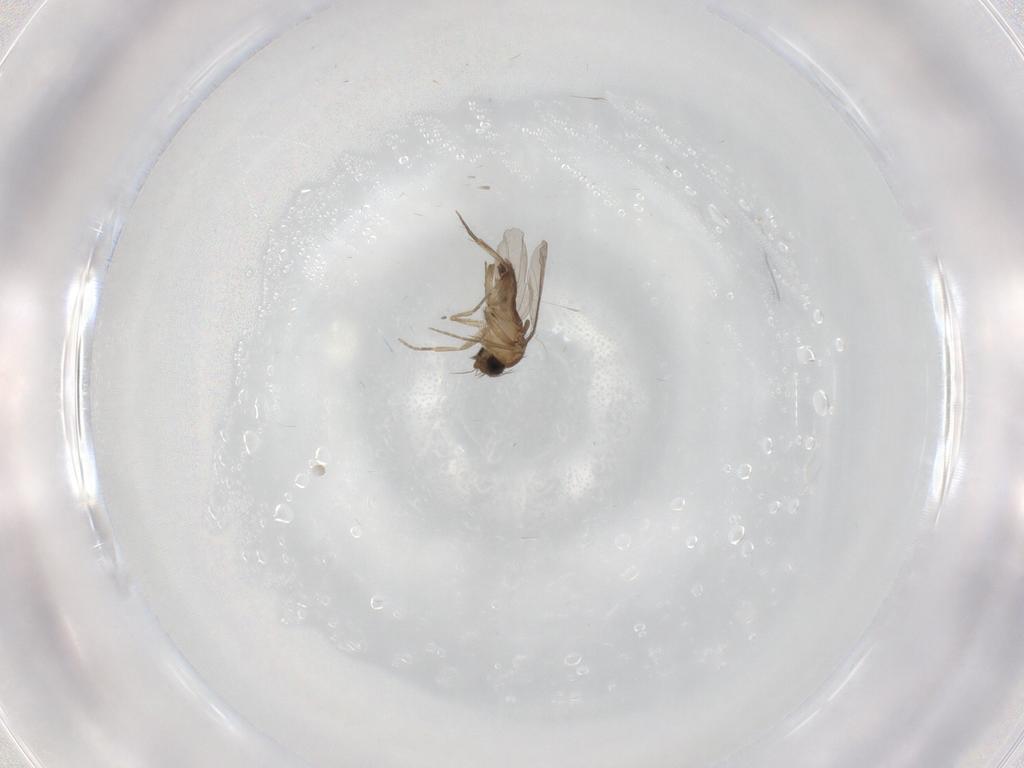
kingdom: Animalia
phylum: Arthropoda
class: Insecta
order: Diptera
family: Phoridae
